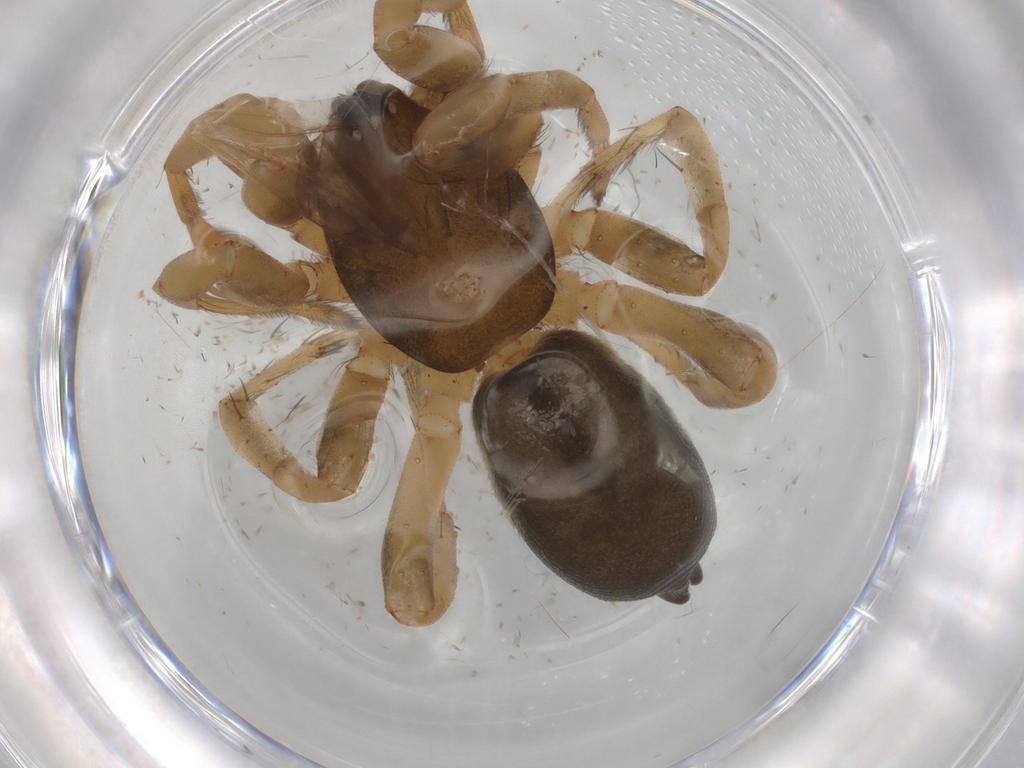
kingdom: Animalia
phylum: Arthropoda
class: Arachnida
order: Araneae
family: Gnaphosidae
